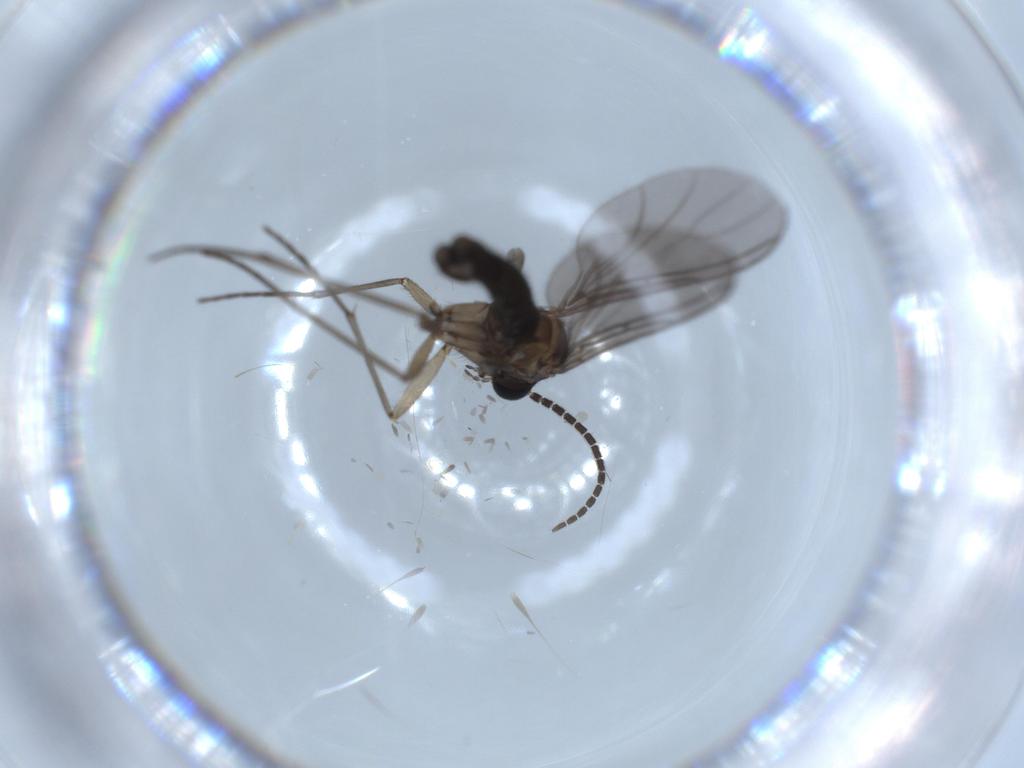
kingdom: Animalia
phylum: Arthropoda
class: Insecta
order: Diptera
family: Sciaridae
